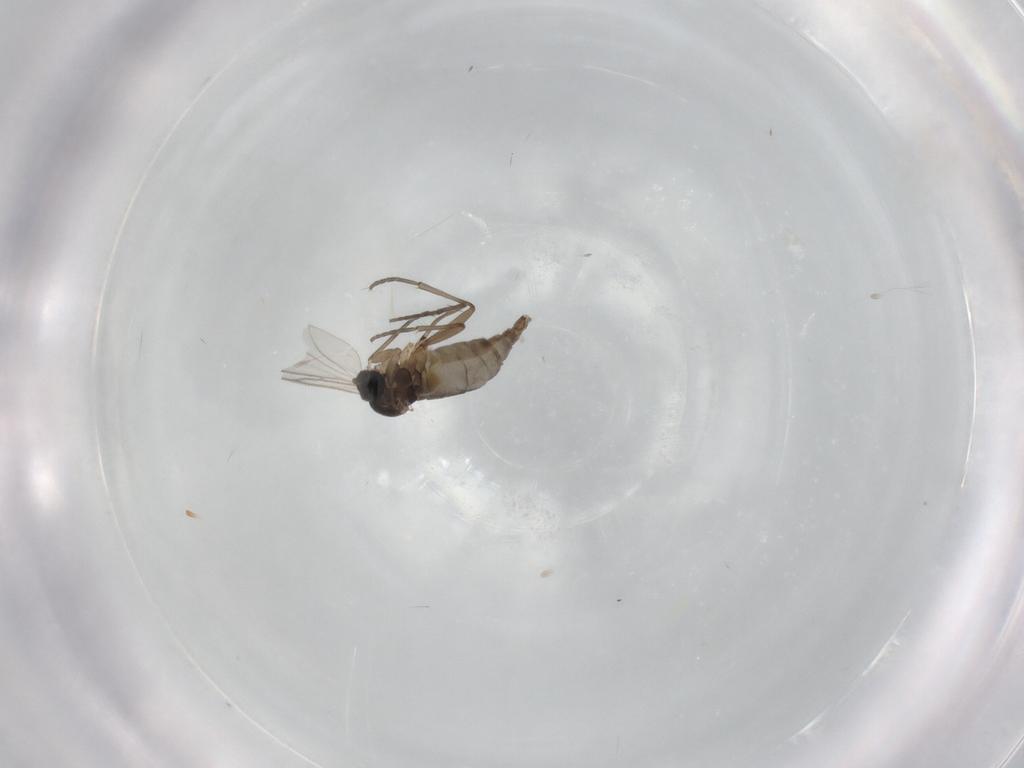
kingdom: Animalia
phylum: Arthropoda
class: Insecta
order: Diptera
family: Sciaridae
